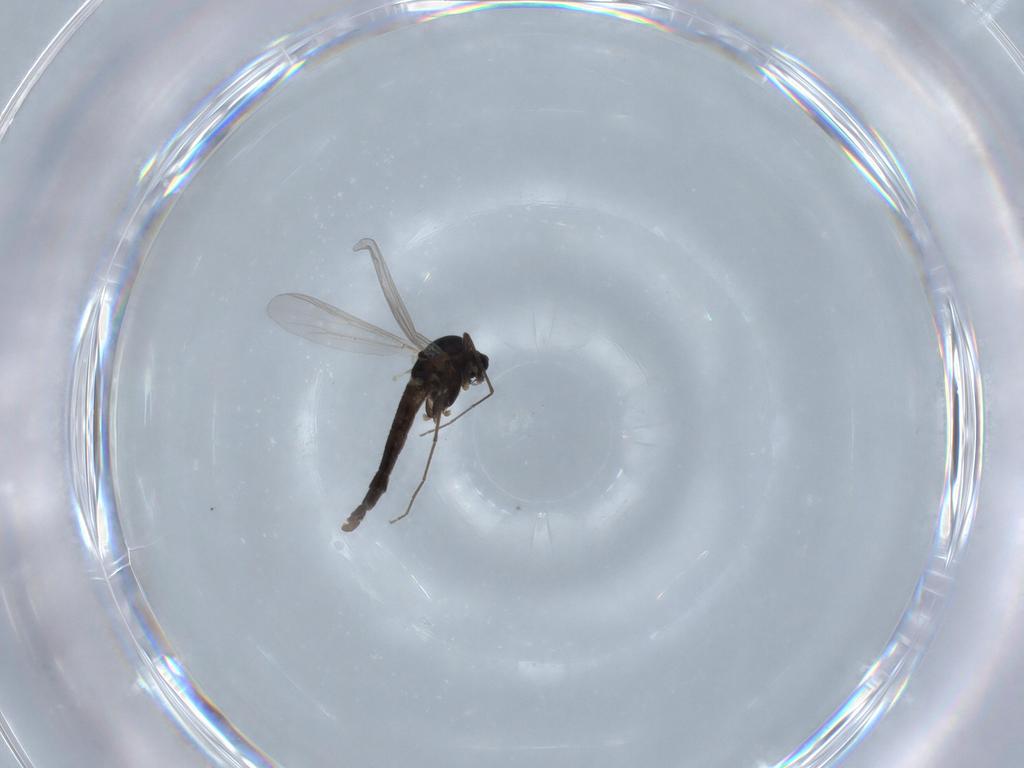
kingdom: Animalia
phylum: Arthropoda
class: Insecta
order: Diptera
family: Chironomidae
